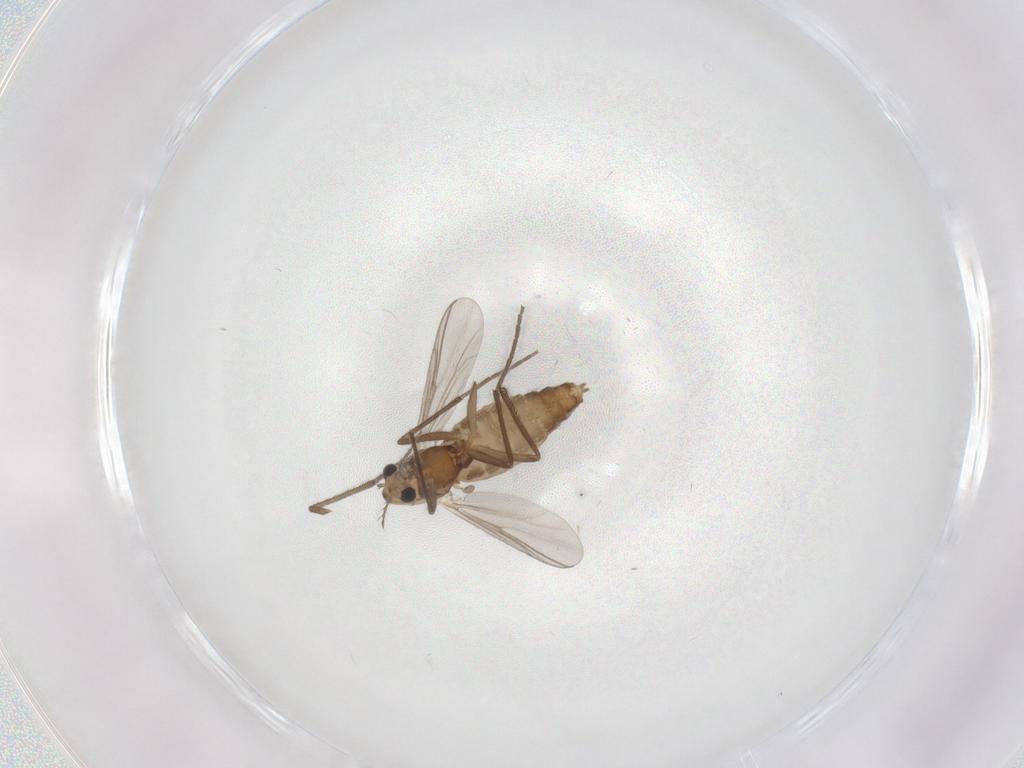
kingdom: Animalia
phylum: Arthropoda
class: Insecta
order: Diptera
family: Chironomidae
